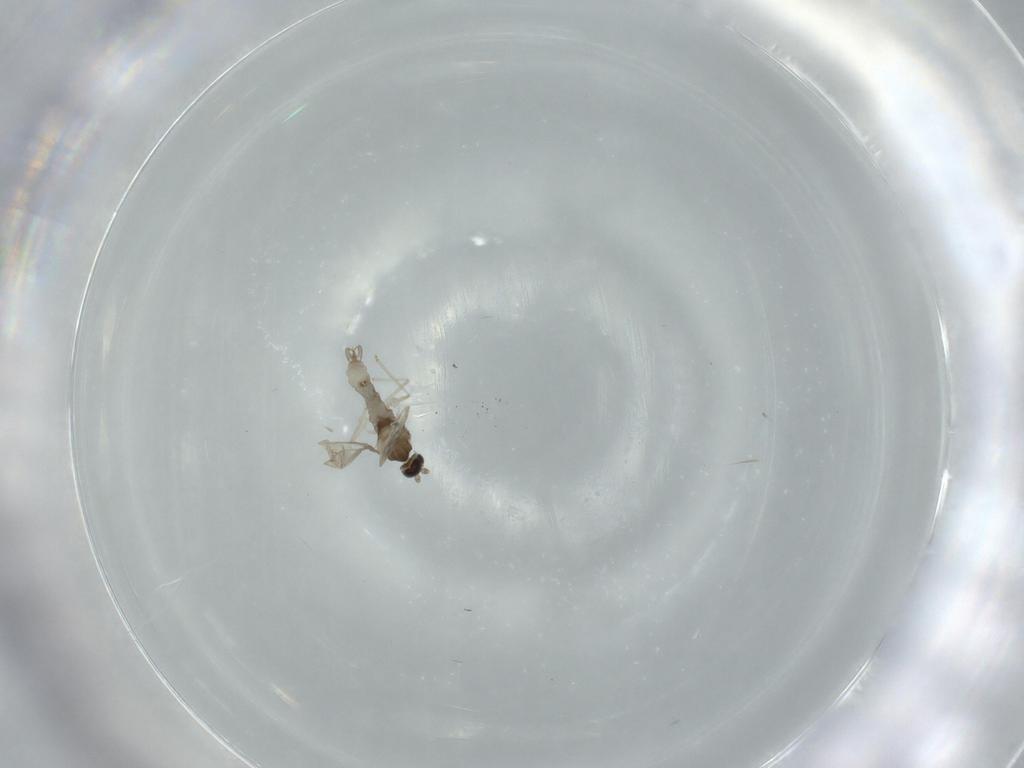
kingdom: Animalia
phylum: Arthropoda
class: Insecta
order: Diptera
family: Cecidomyiidae
